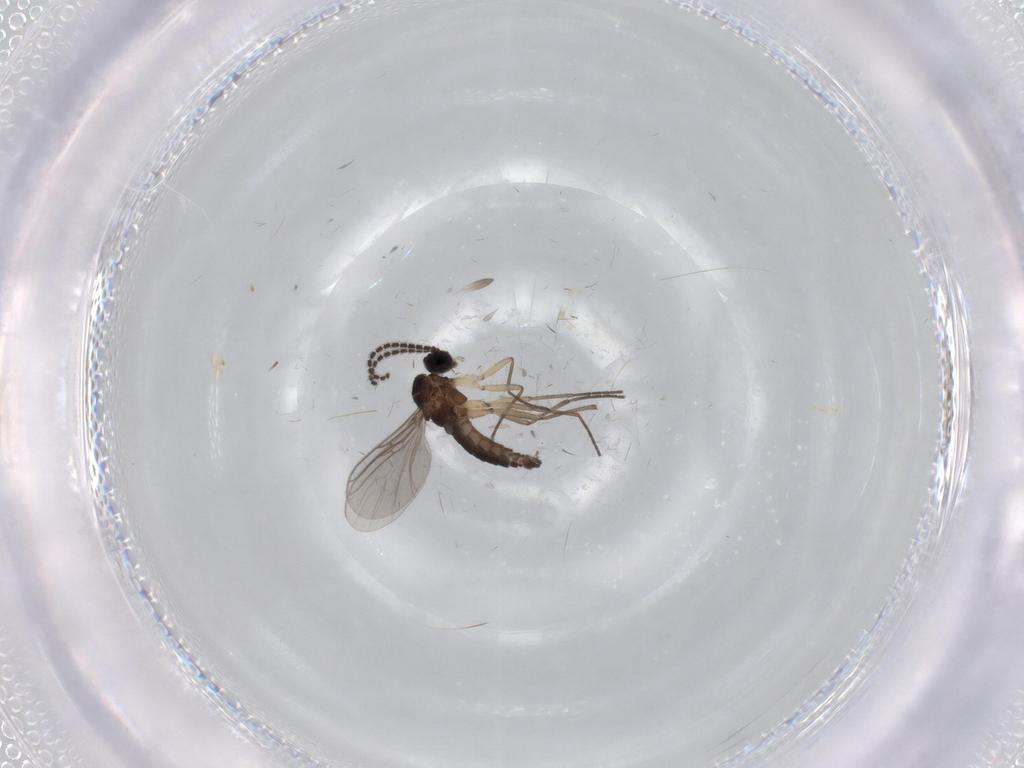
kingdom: Animalia
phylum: Arthropoda
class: Insecta
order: Diptera
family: Sciaridae
